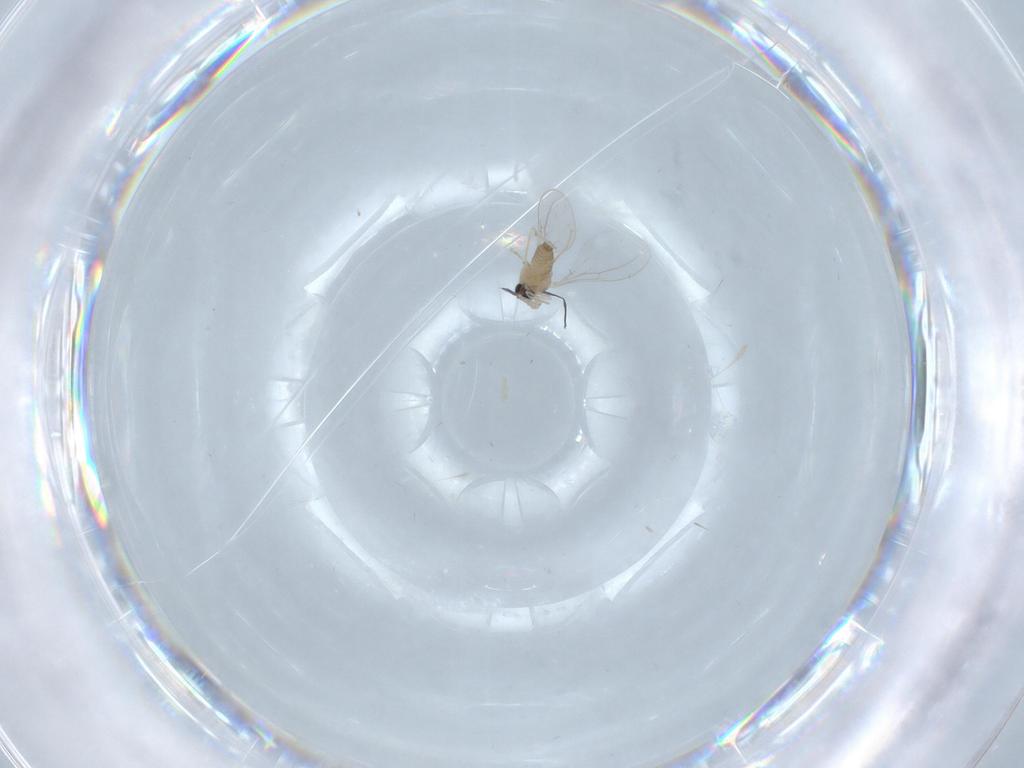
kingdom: Animalia
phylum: Arthropoda
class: Insecta
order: Diptera
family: Cecidomyiidae
